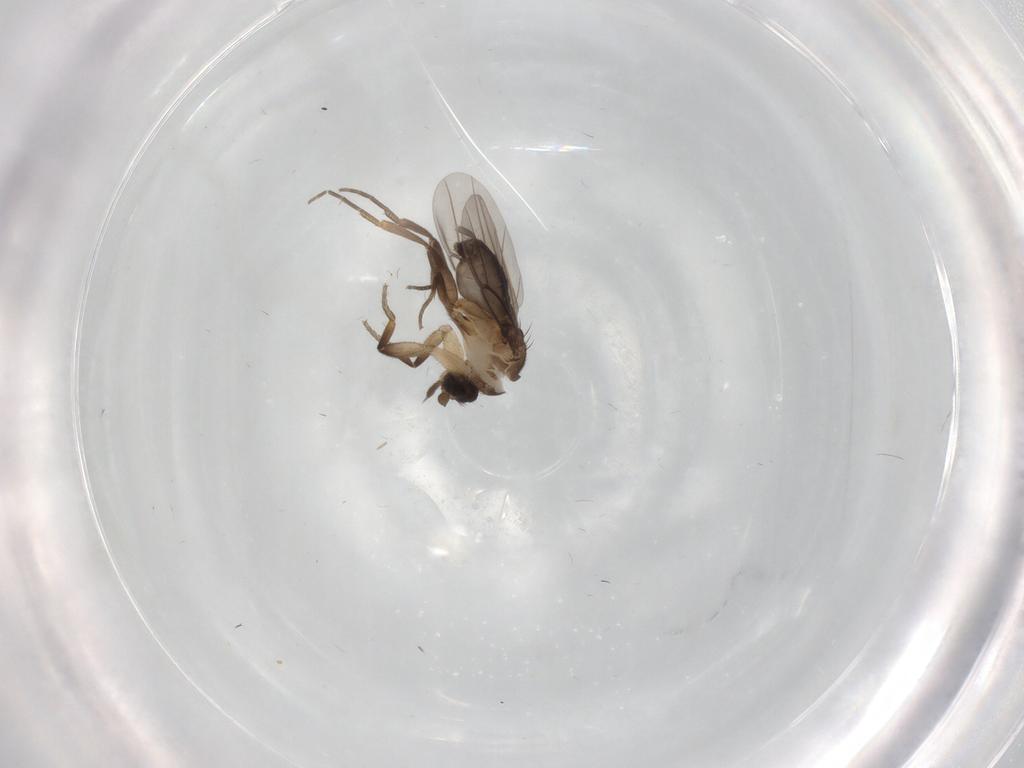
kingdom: Animalia
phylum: Arthropoda
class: Insecta
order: Diptera
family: Phoridae
